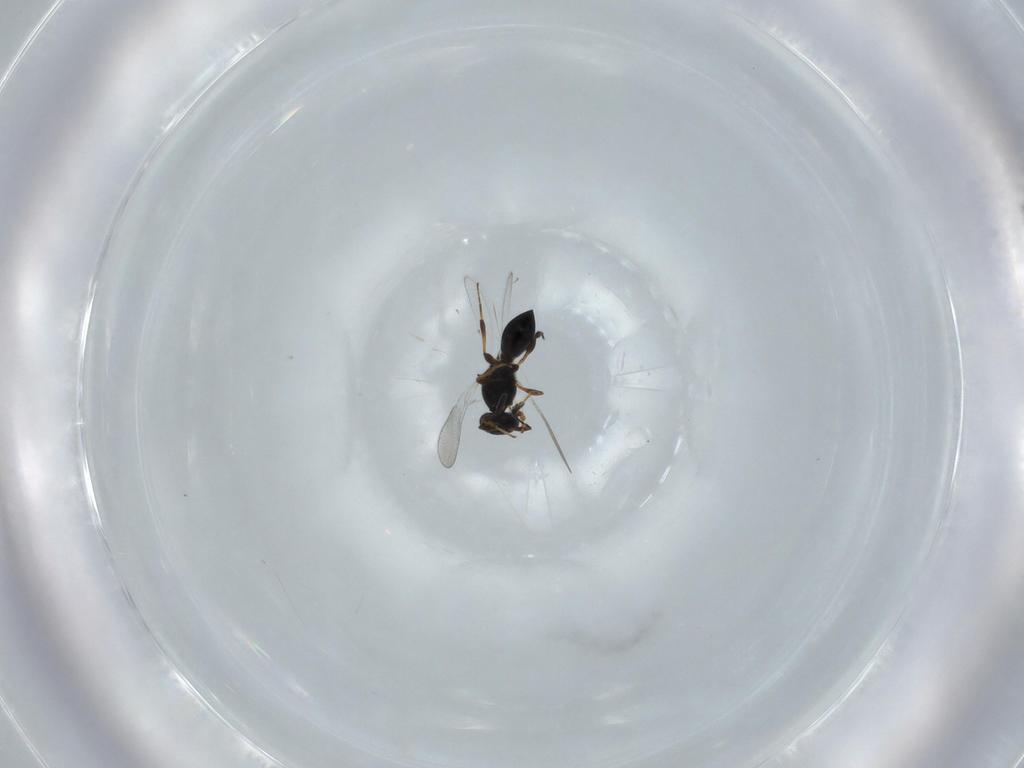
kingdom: Animalia
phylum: Arthropoda
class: Insecta
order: Hymenoptera
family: Platygastridae
